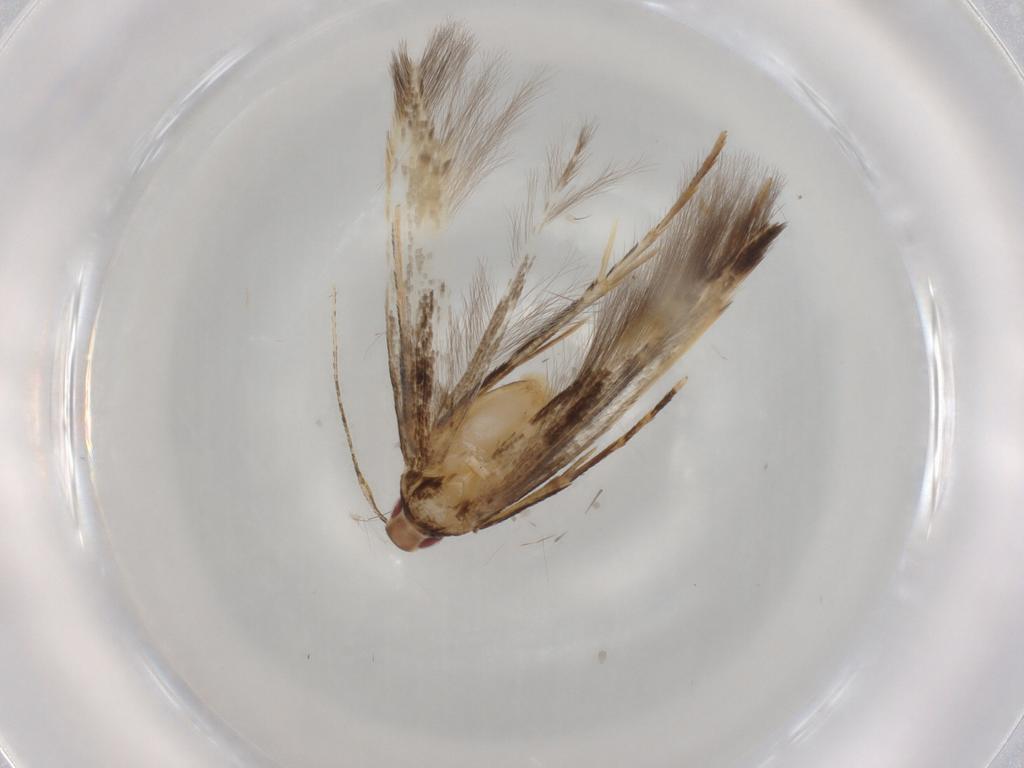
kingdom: Animalia
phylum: Arthropoda
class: Insecta
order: Lepidoptera
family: Cosmopterigidae
